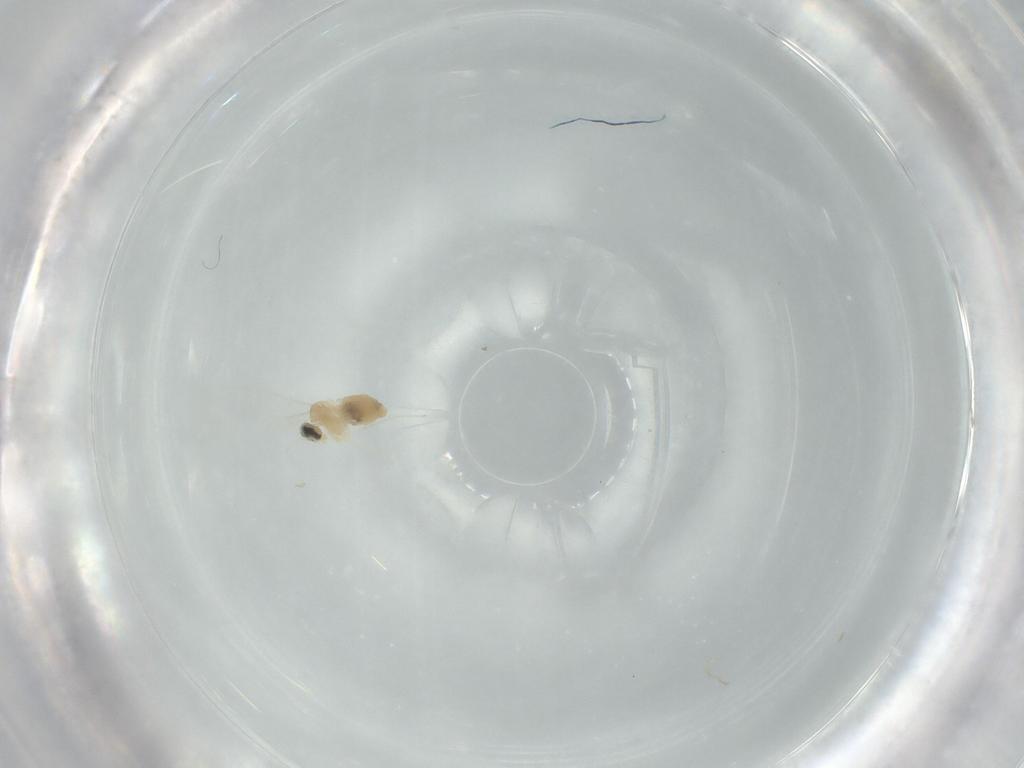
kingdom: Animalia
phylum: Arthropoda
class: Insecta
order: Diptera
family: Cecidomyiidae
